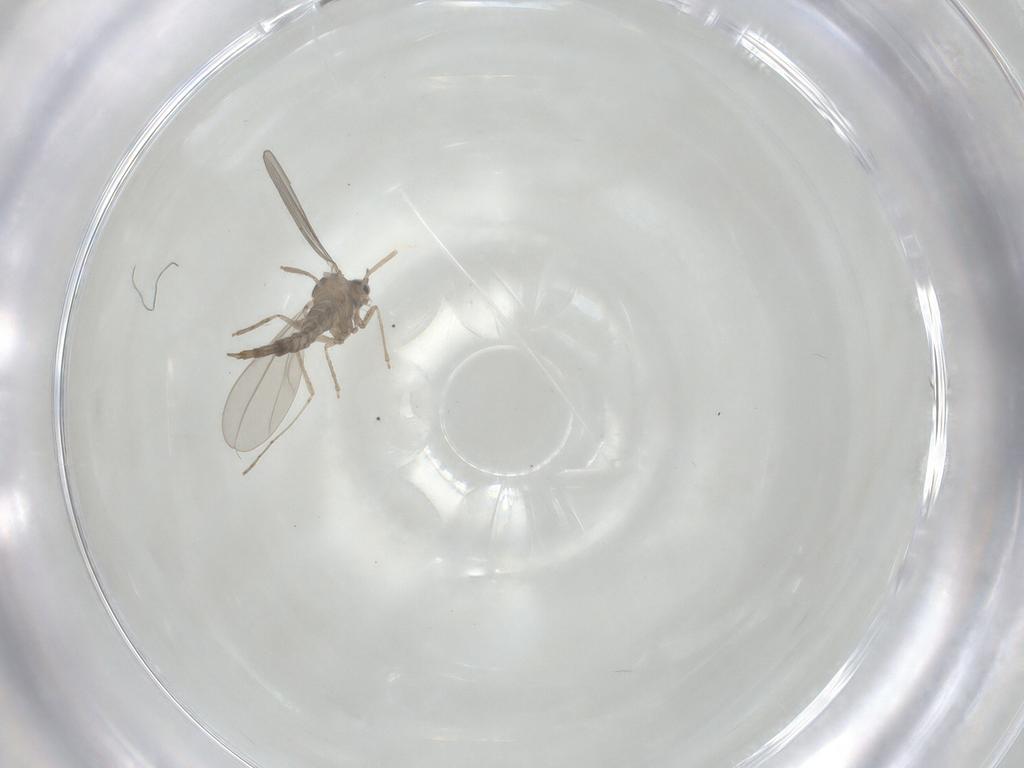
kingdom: Animalia
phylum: Arthropoda
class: Insecta
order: Diptera
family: Cecidomyiidae
